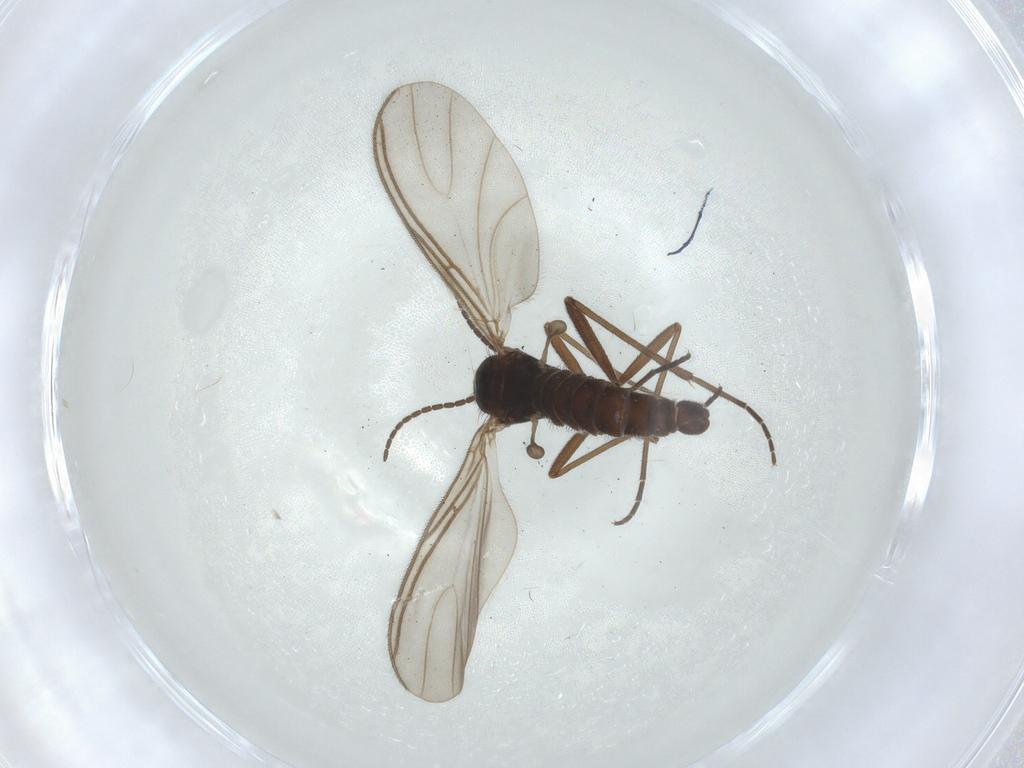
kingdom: Animalia
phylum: Arthropoda
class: Insecta
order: Diptera
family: Sciaridae
